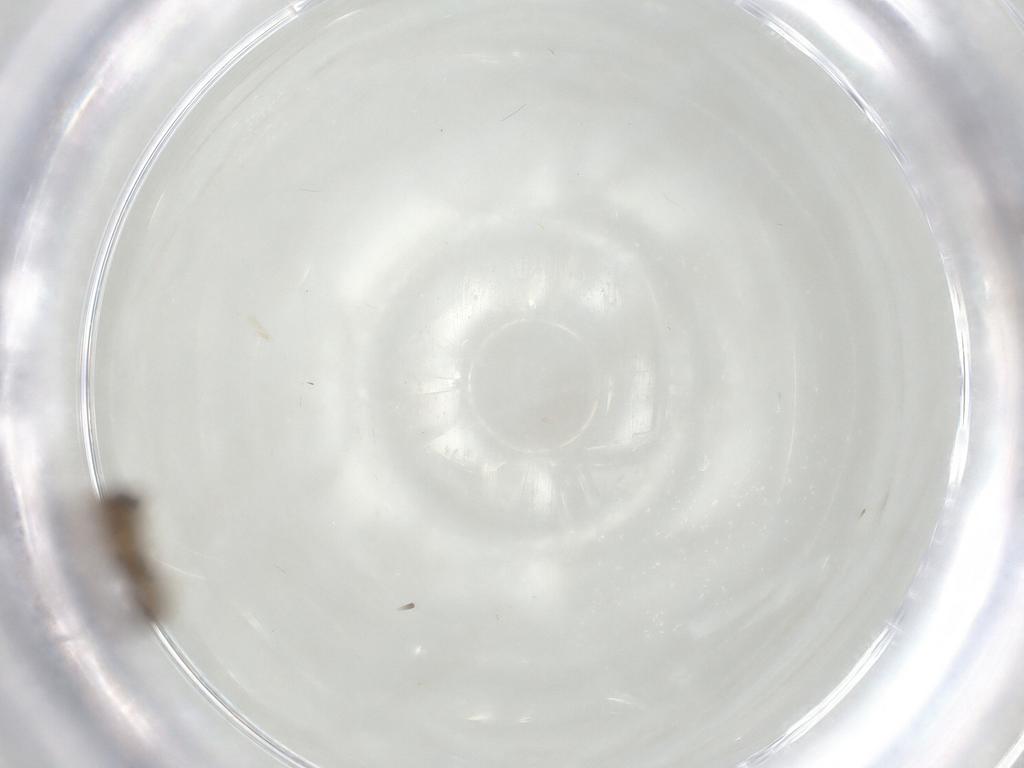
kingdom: Animalia
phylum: Arthropoda
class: Insecta
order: Diptera
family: Psychodidae
